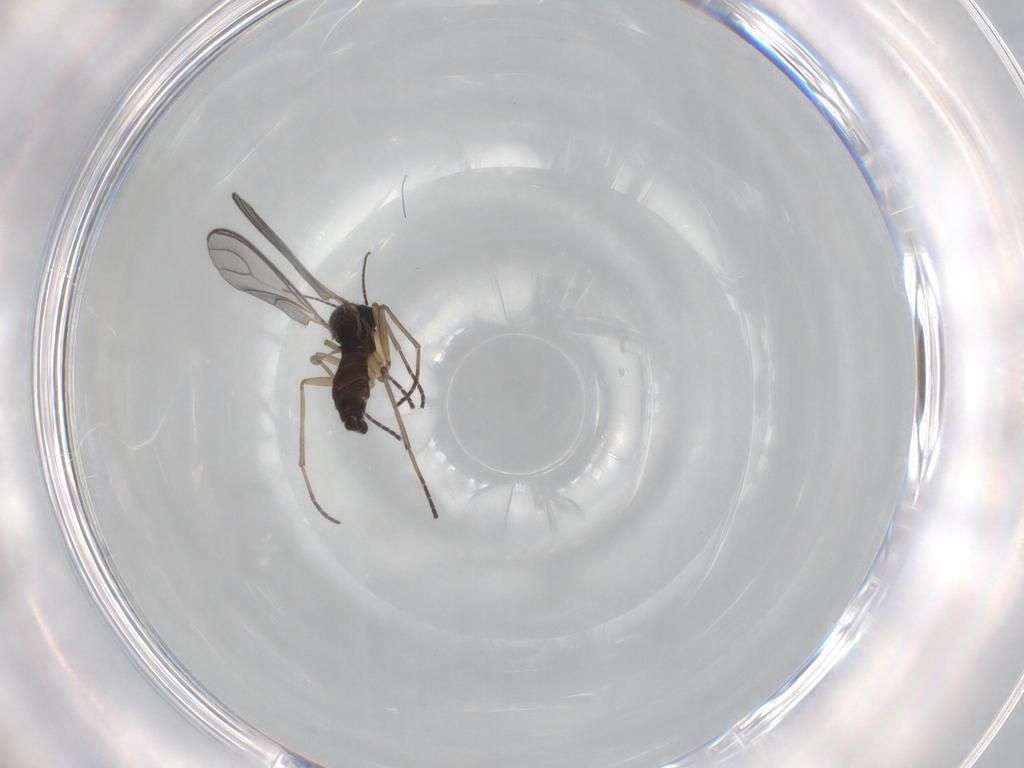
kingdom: Animalia
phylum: Arthropoda
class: Insecta
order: Diptera
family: Sciaridae
